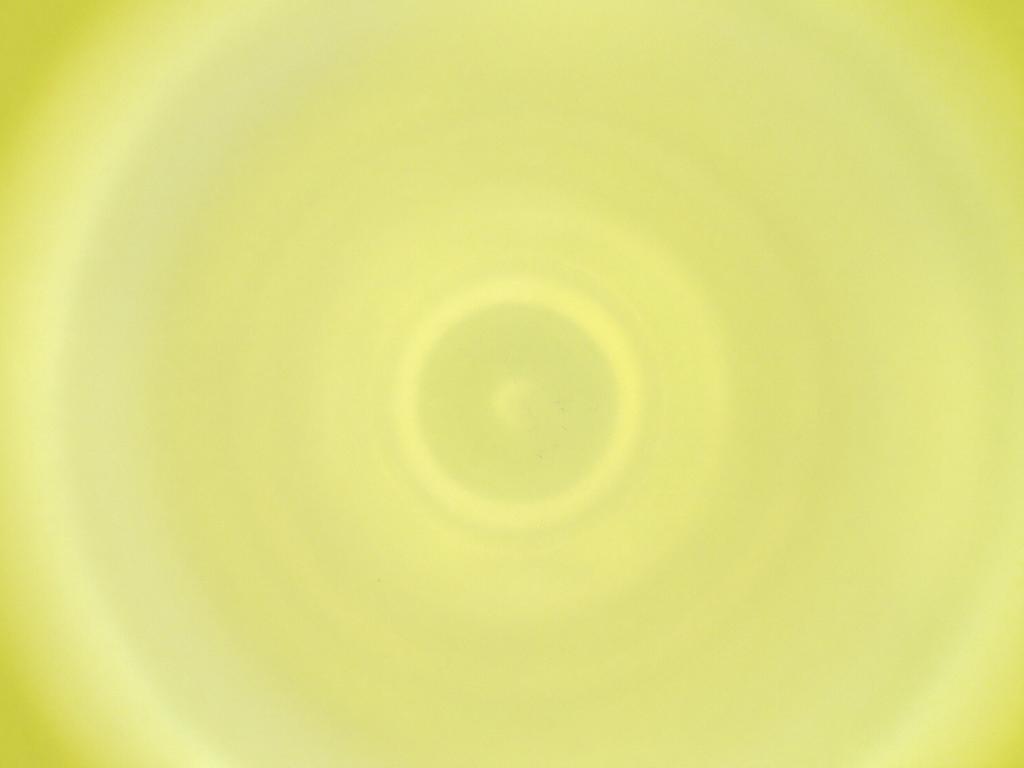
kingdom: Animalia
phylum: Arthropoda
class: Insecta
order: Diptera
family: Cecidomyiidae
